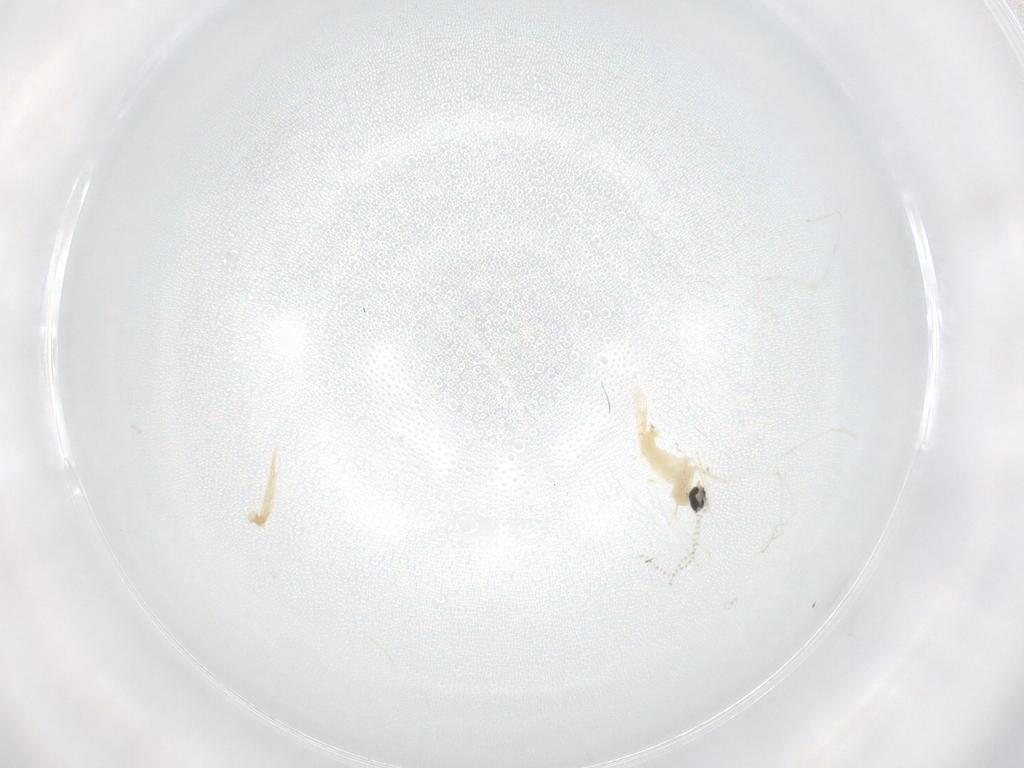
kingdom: Animalia
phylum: Arthropoda
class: Insecta
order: Diptera
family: Cecidomyiidae
